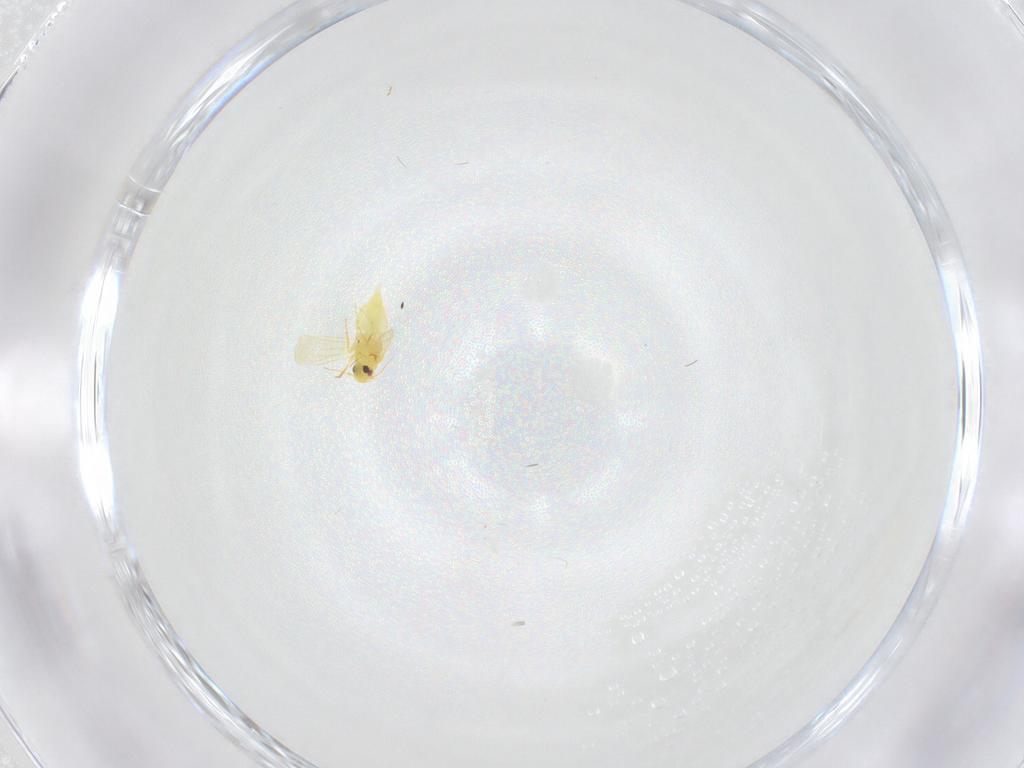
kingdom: Animalia
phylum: Arthropoda
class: Insecta
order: Hemiptera
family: Aleyrodidae
